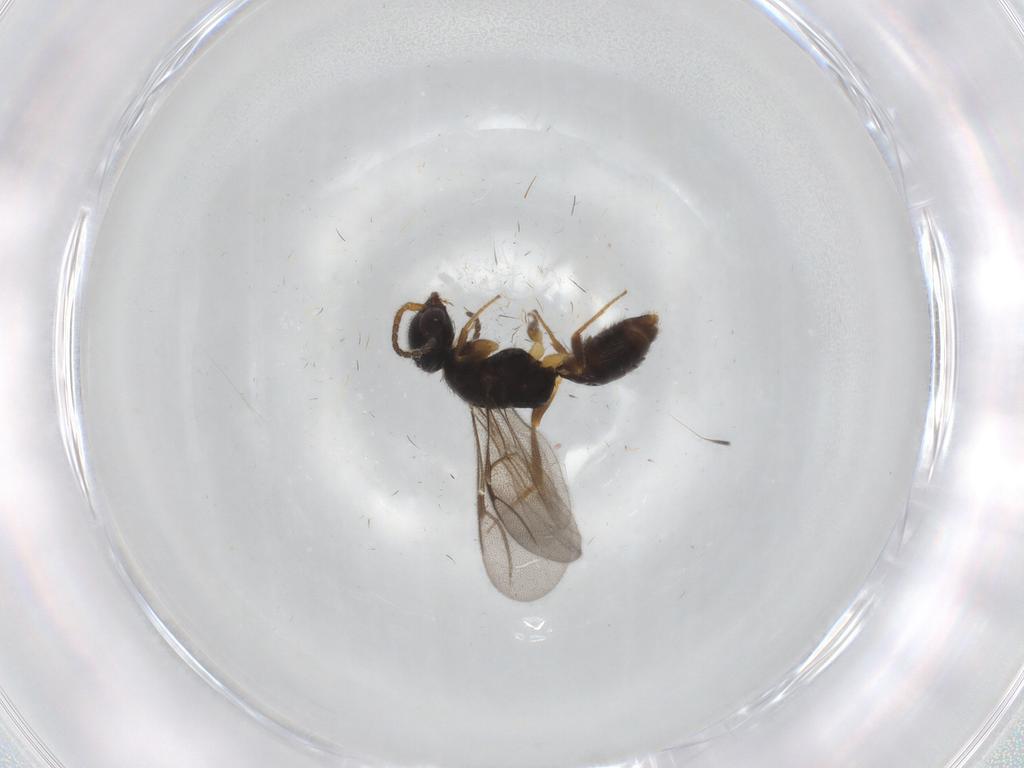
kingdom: Animalia
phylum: Arthropoda
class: Insecta
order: Hymenoptera
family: Bethylidae
